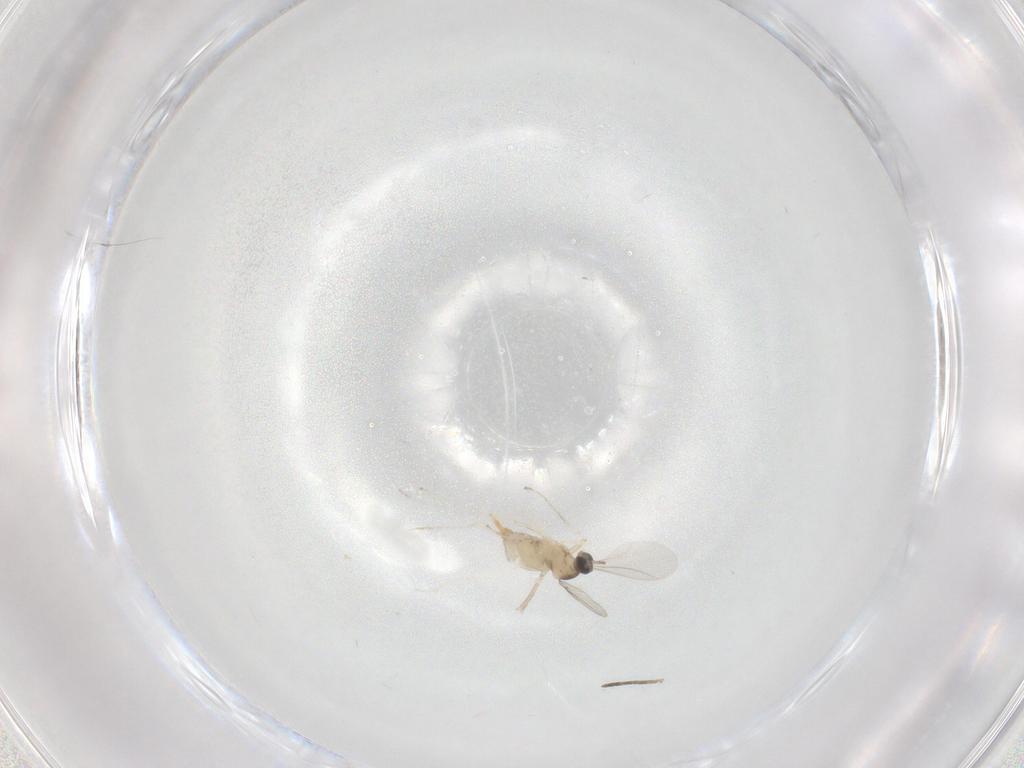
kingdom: Animalia
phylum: Arthropoda
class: Insecta
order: Diptera
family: Cecidomyiidae
